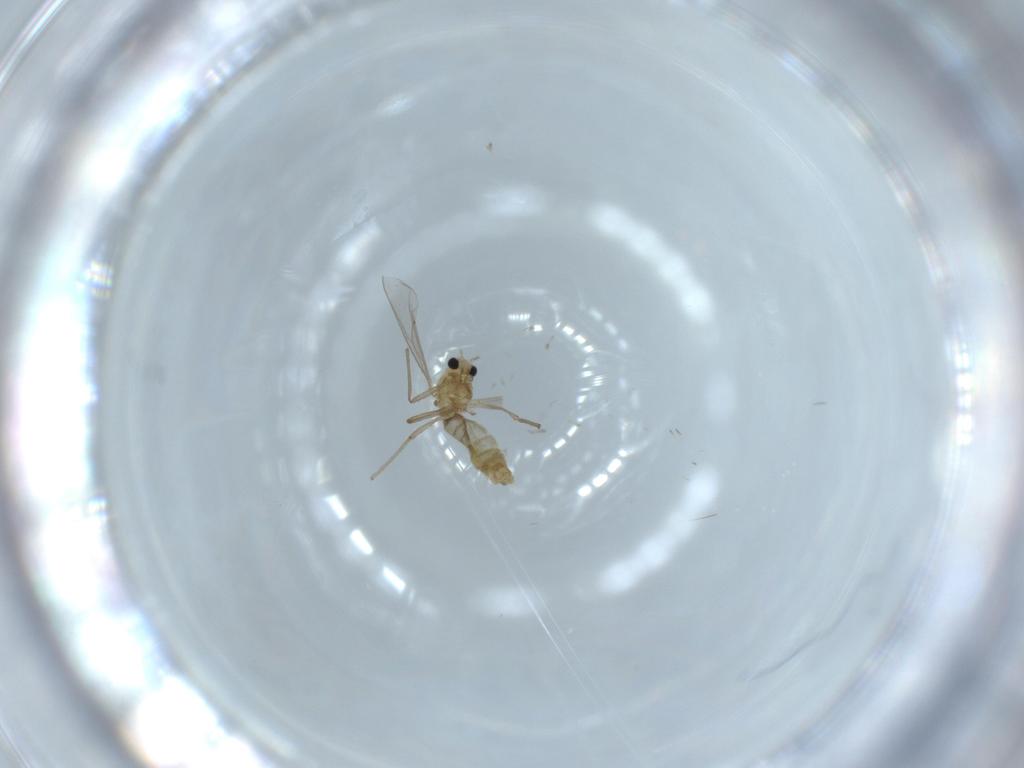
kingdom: Animalia
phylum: Arthropoda
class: Insecta
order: Diptera
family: Chironomidae
